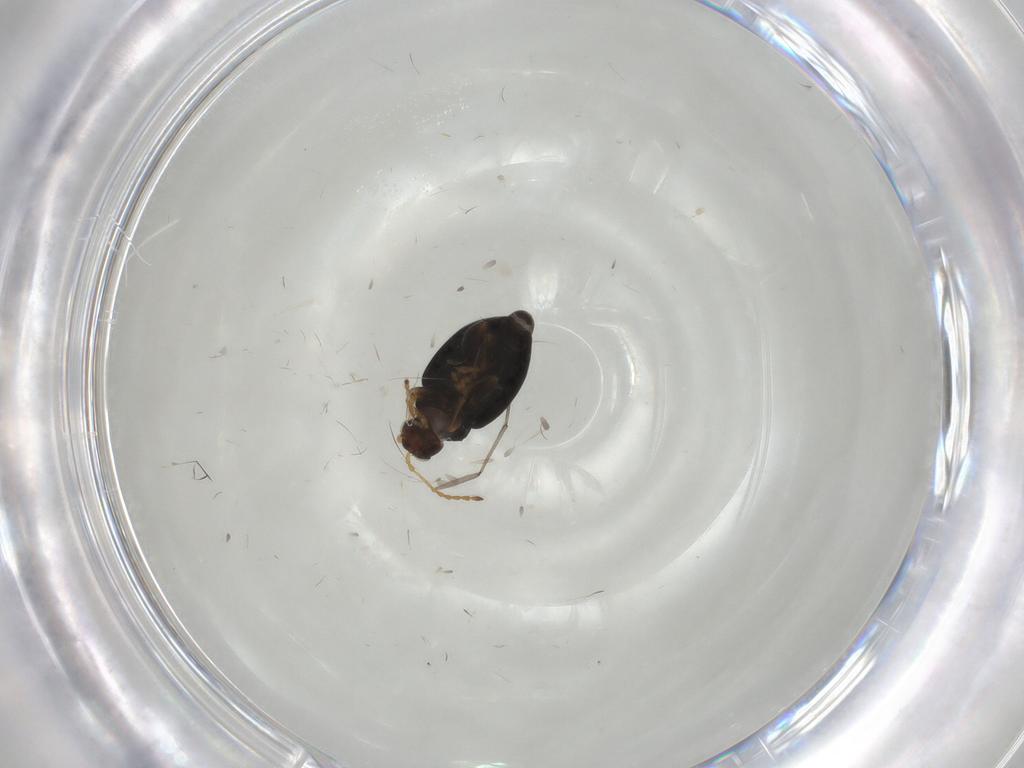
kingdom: Animalia
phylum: Arthropoda
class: Insecta
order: Coleoptera
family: Chrysomelidae
